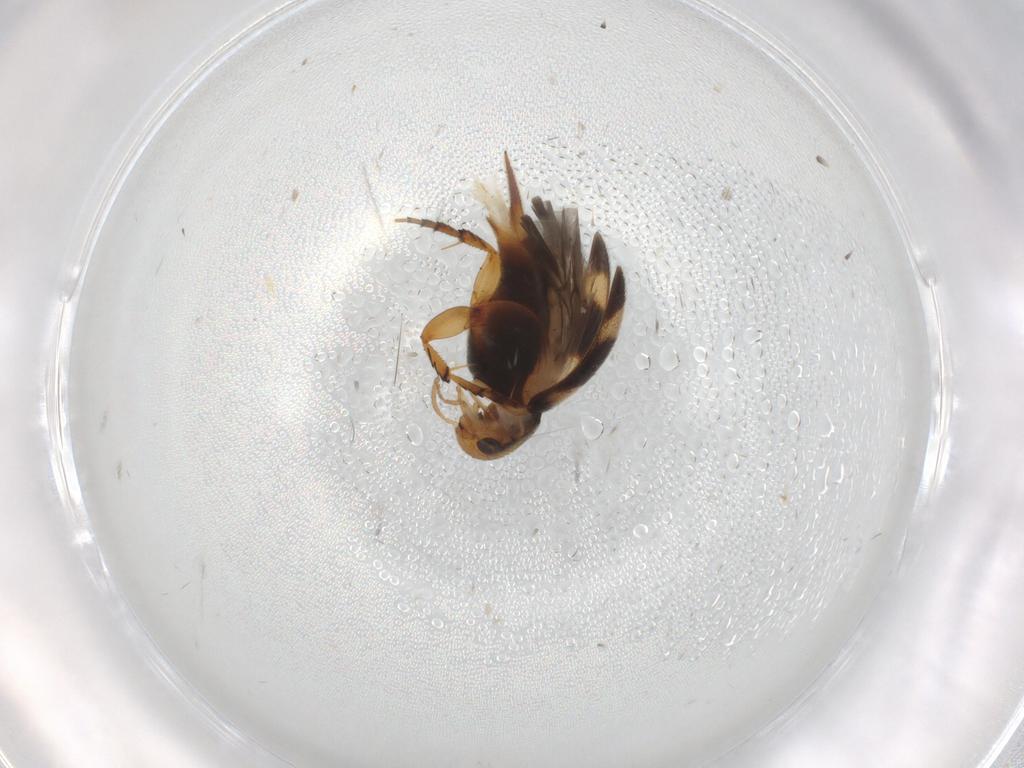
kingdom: Animalia
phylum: Arthropoda
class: Insecta
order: Coleoptera
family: Mordellidae
